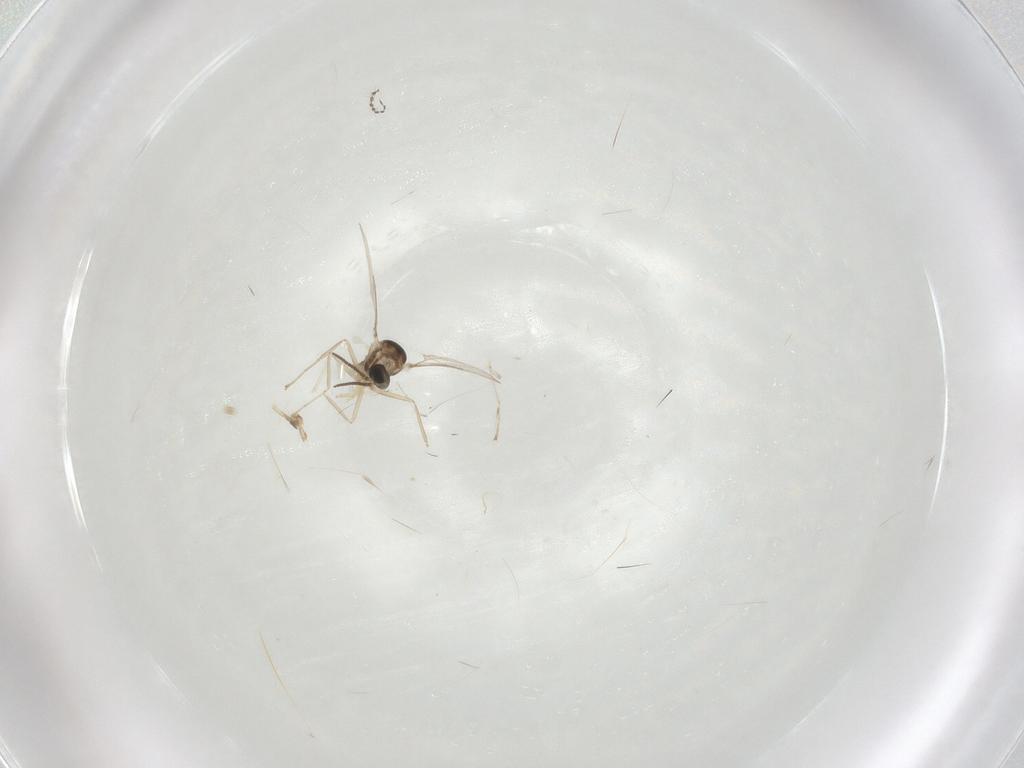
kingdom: Animalia
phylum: Arthropoda
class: Insecta
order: Diptera
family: Cecidomyiidae
